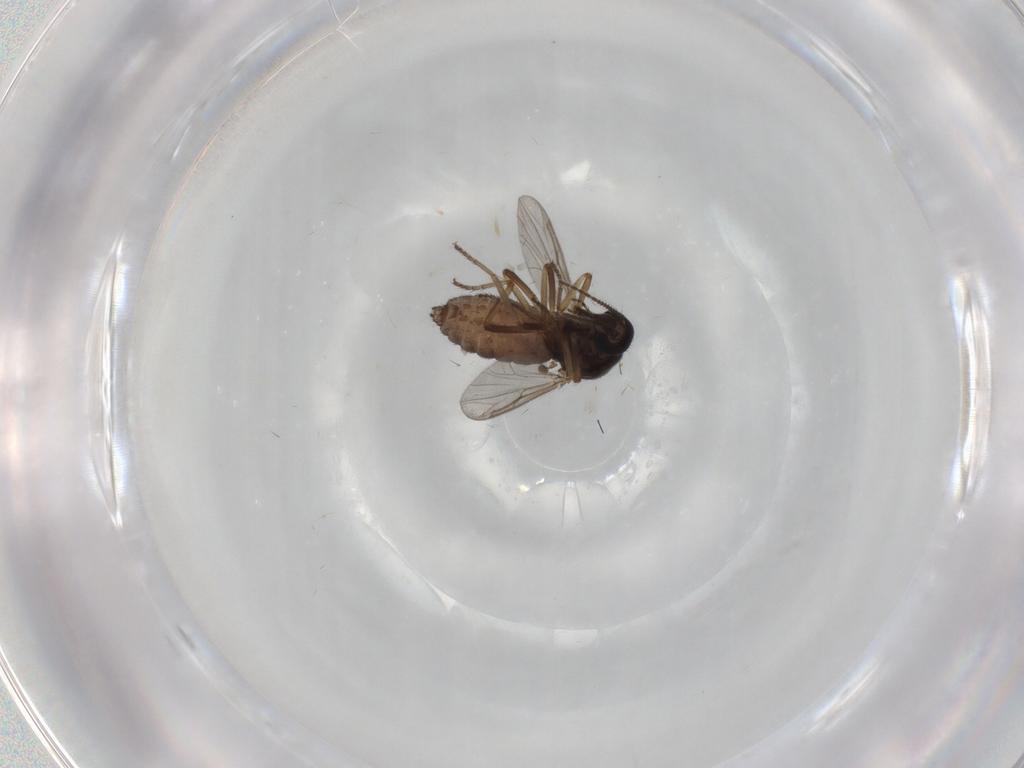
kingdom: Animalia
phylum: Arthropoda
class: Insecta
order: Diptera
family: Ceratopogonidae
